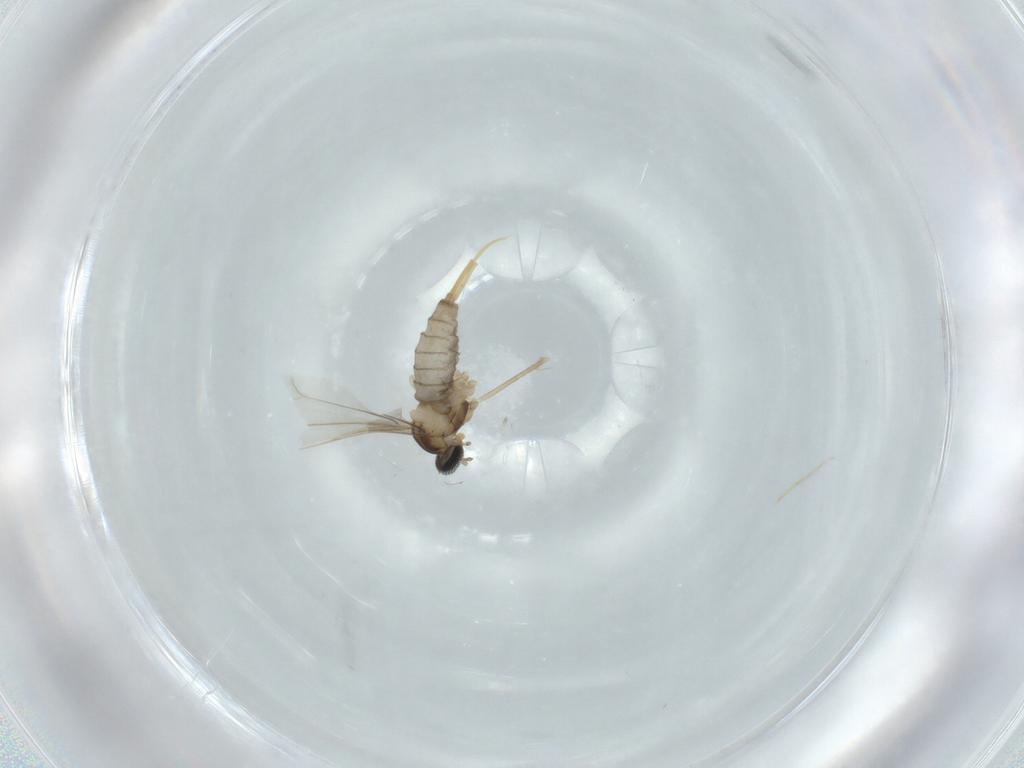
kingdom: Animalia
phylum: Arthropoda
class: Insecta
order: Diptera
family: Cecidomyiidae
